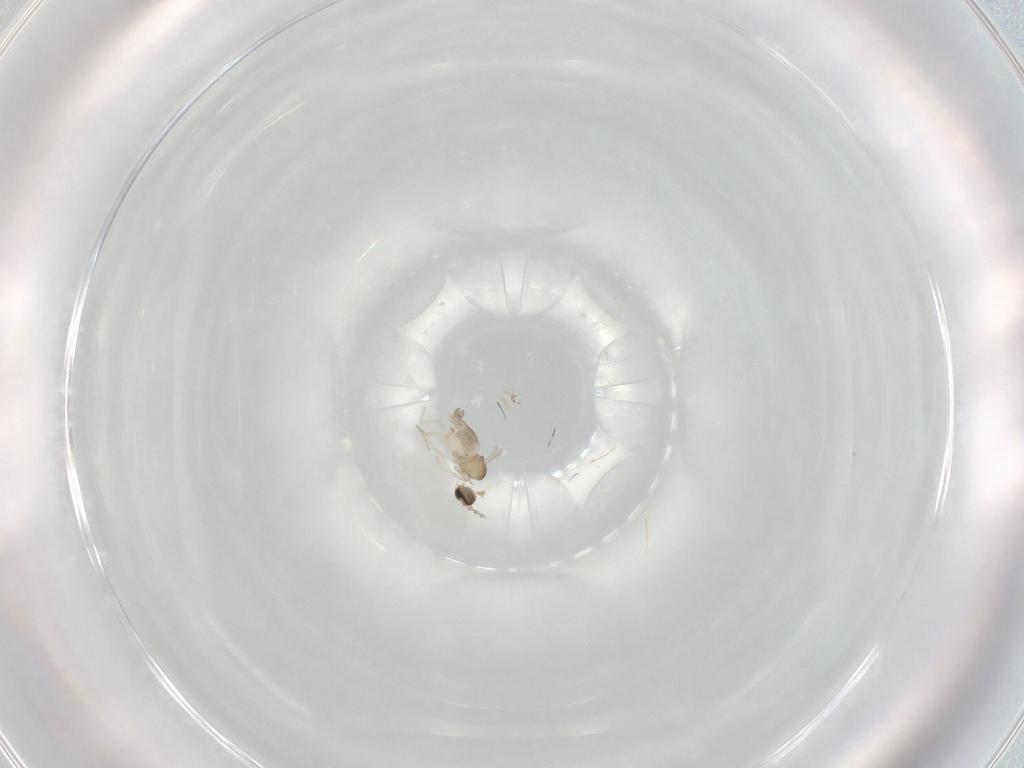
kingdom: Animalia
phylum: Arthropoda
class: Insecta
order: Diptera
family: Cecidomyiidae
